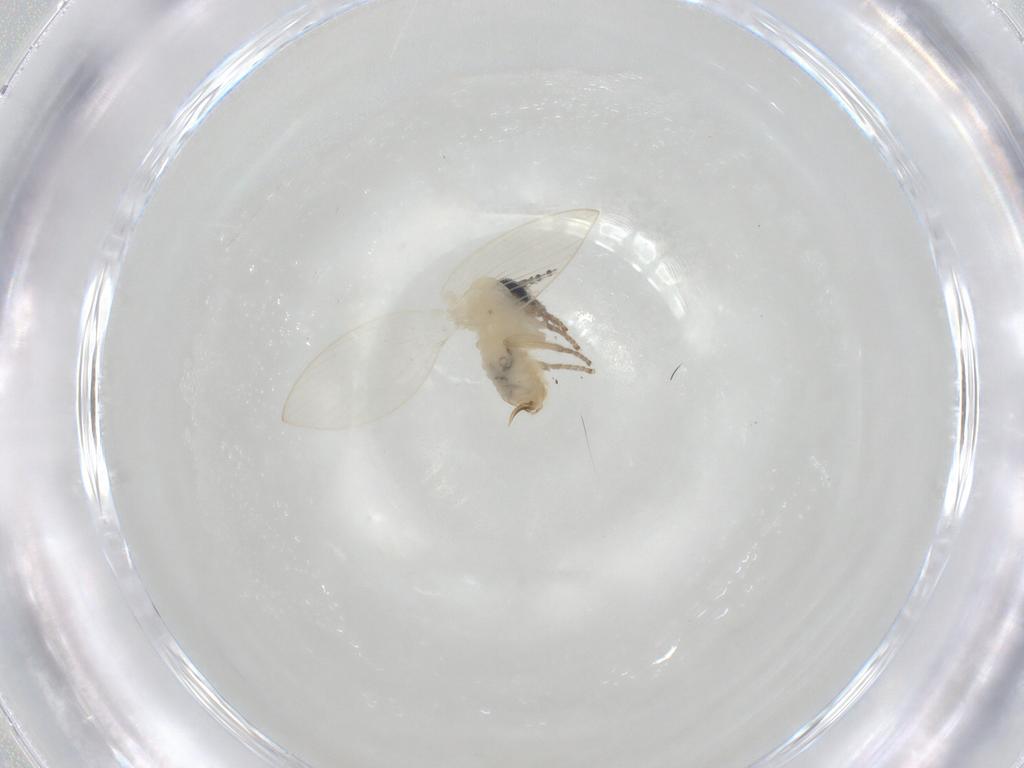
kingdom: Animalia
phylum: Arthropoda
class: Insecta
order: Diptera
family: Psychodidae
